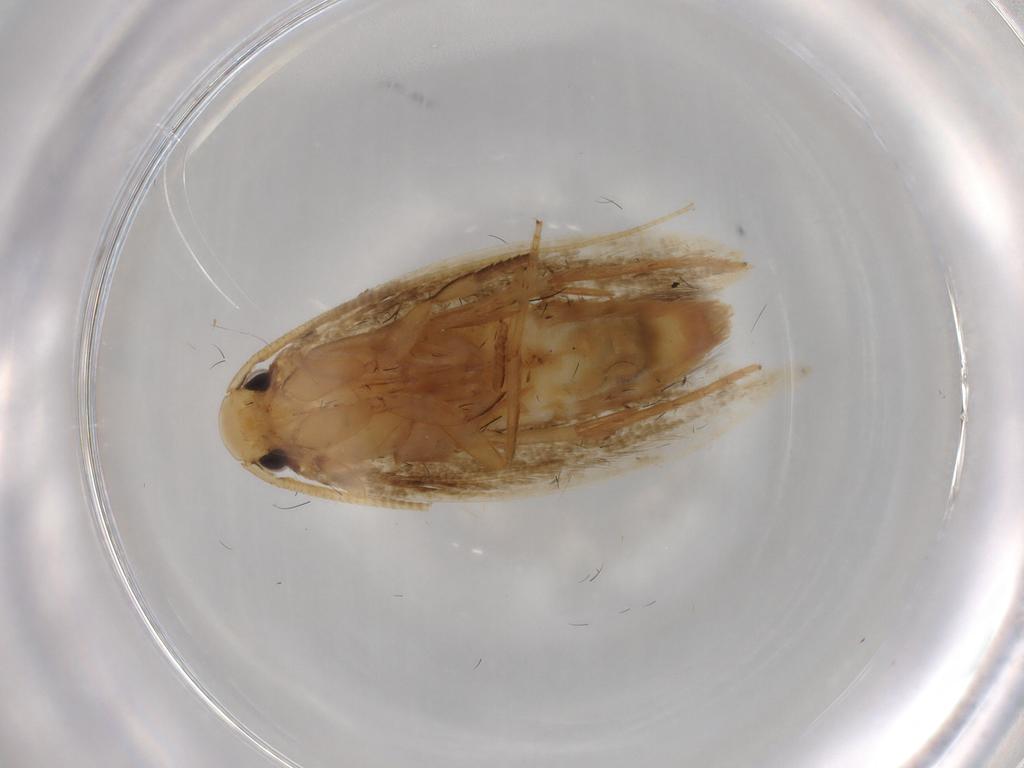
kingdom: Animalia
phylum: Arthropoda
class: Insecta
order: Lepidoptera
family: Tineidae
